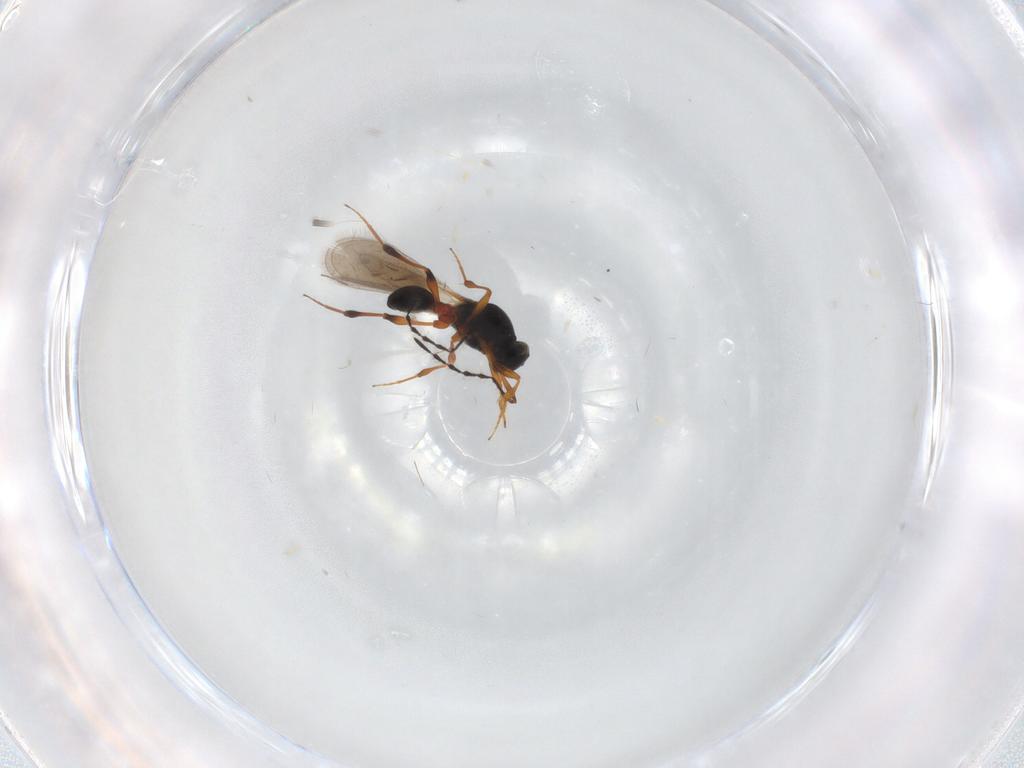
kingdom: Animalia
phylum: Arthropoda
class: Insecta
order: Hymenoptera
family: Platygastridae
